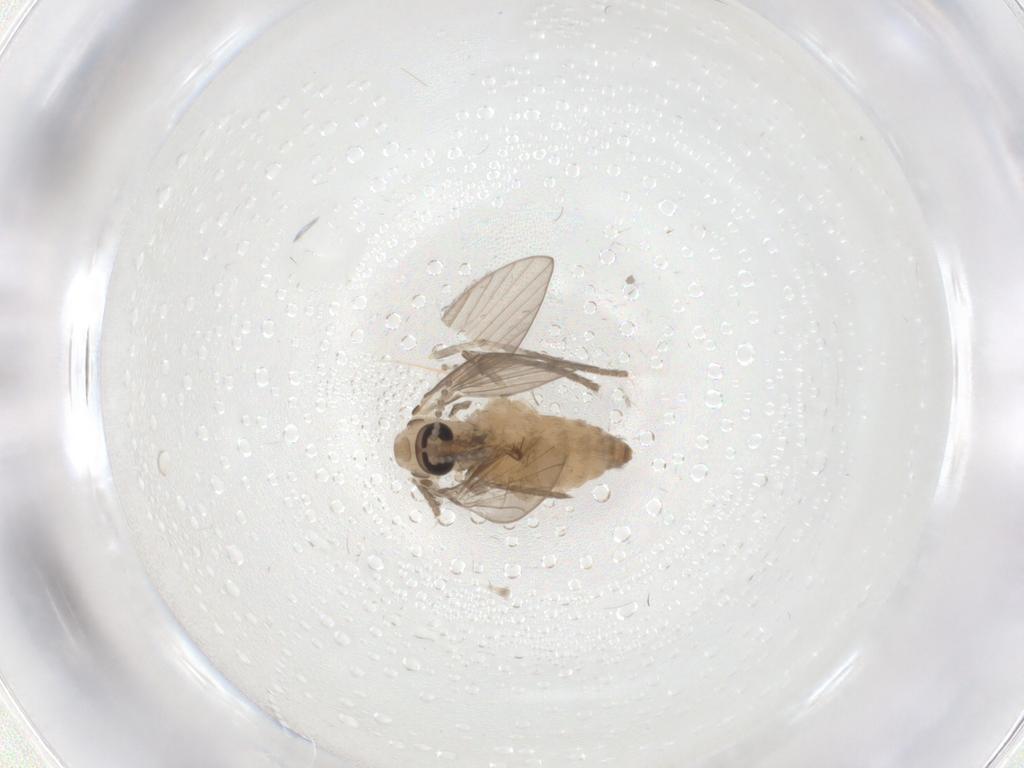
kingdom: Animalia
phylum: Arthropoda
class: Insecta
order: Diptera
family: Psychodidae
